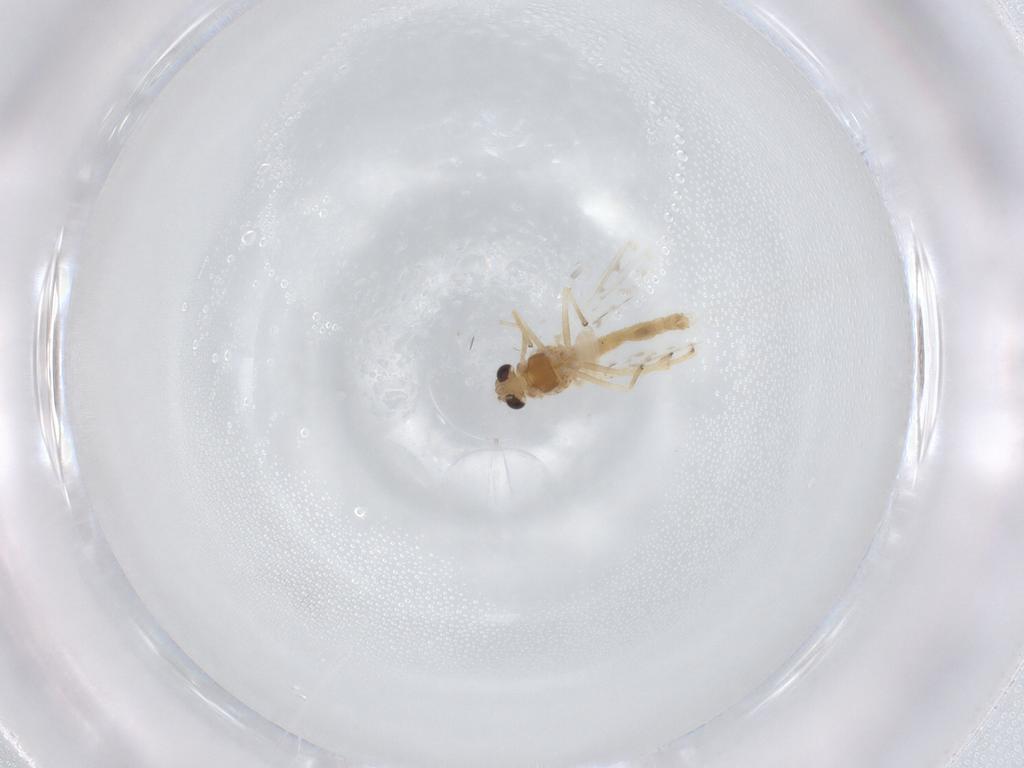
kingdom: Animalia
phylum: Arthropoda
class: Insecta
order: Diptera
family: Chironomidae
